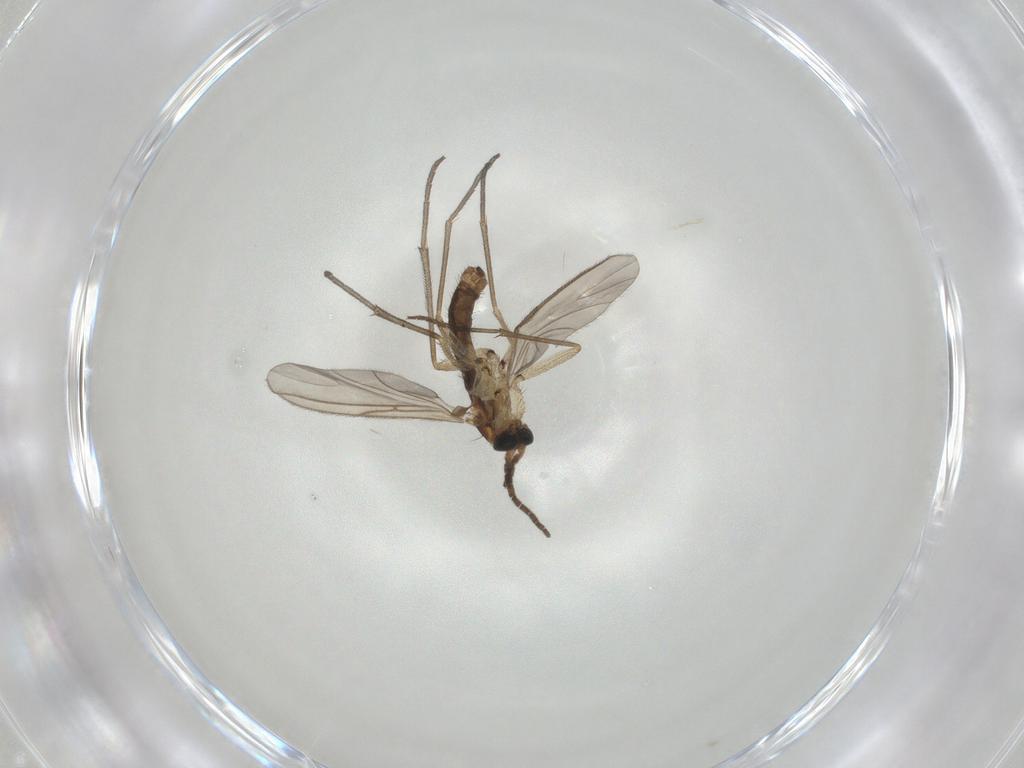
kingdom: Animalia
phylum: Arthropoda
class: Insecta
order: Diptera
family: Sciaridae
